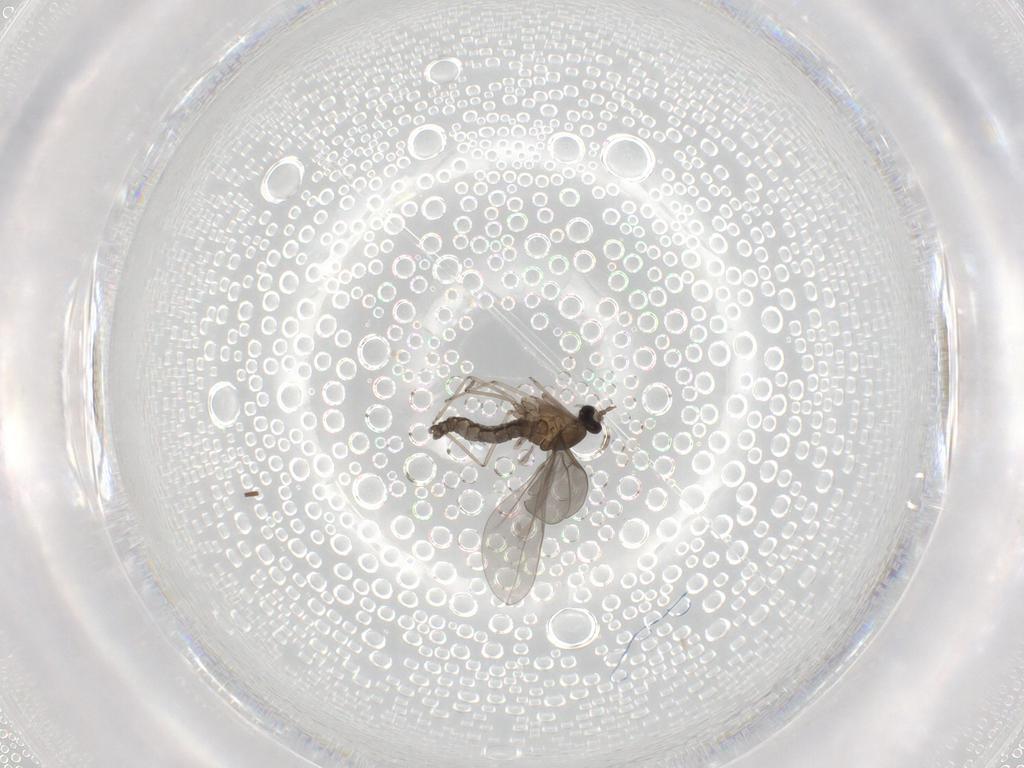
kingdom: Animalia
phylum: Arthropoda
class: Insecta
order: Diptera
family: Cecidomyiidae
